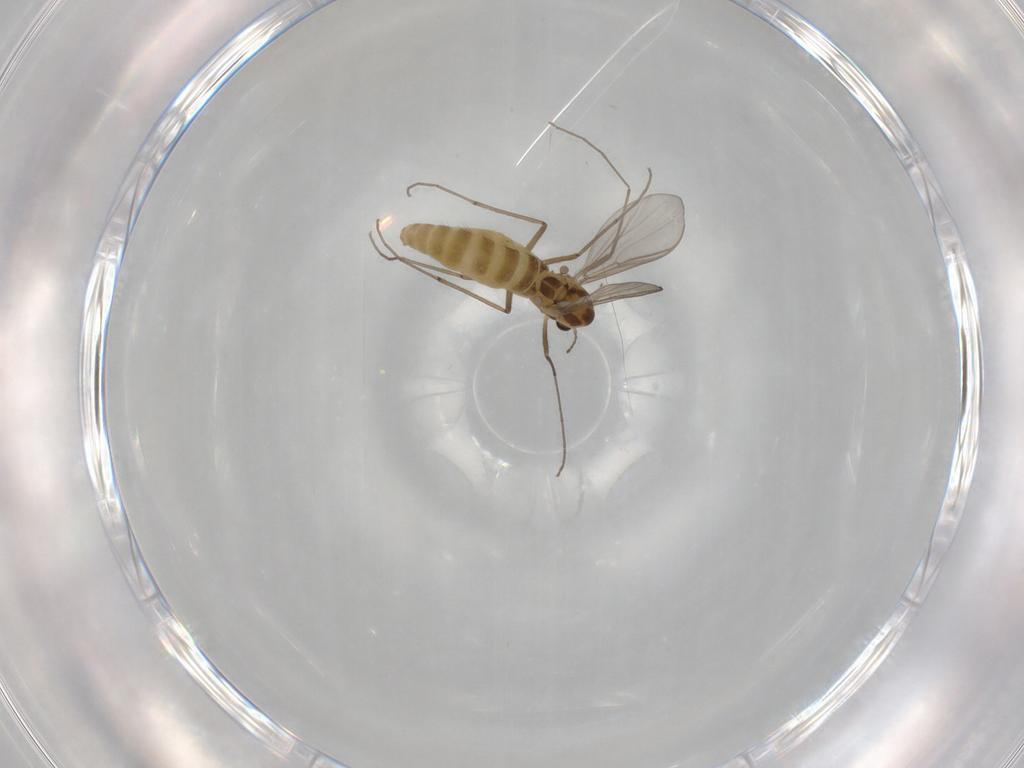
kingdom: Animalia
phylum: Arthropoda
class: Insecta
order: Diptera
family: Chironomidae
